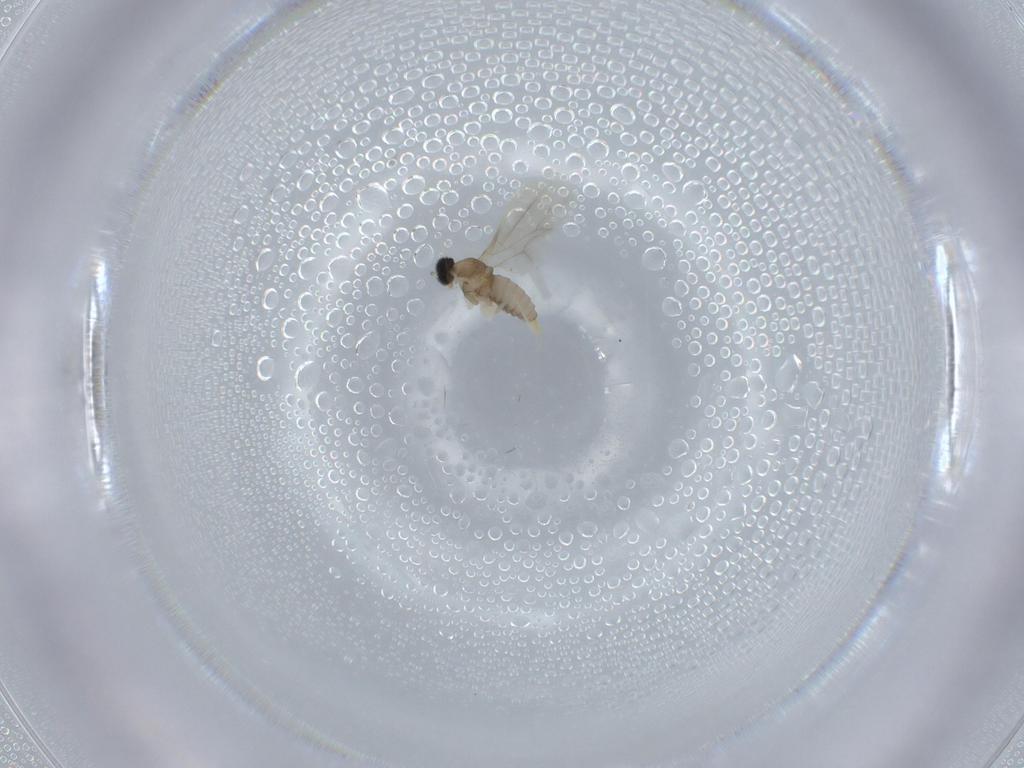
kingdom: Animalia
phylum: Arthropoda
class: Insecta
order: Diptera
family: Cecidomyiidae
